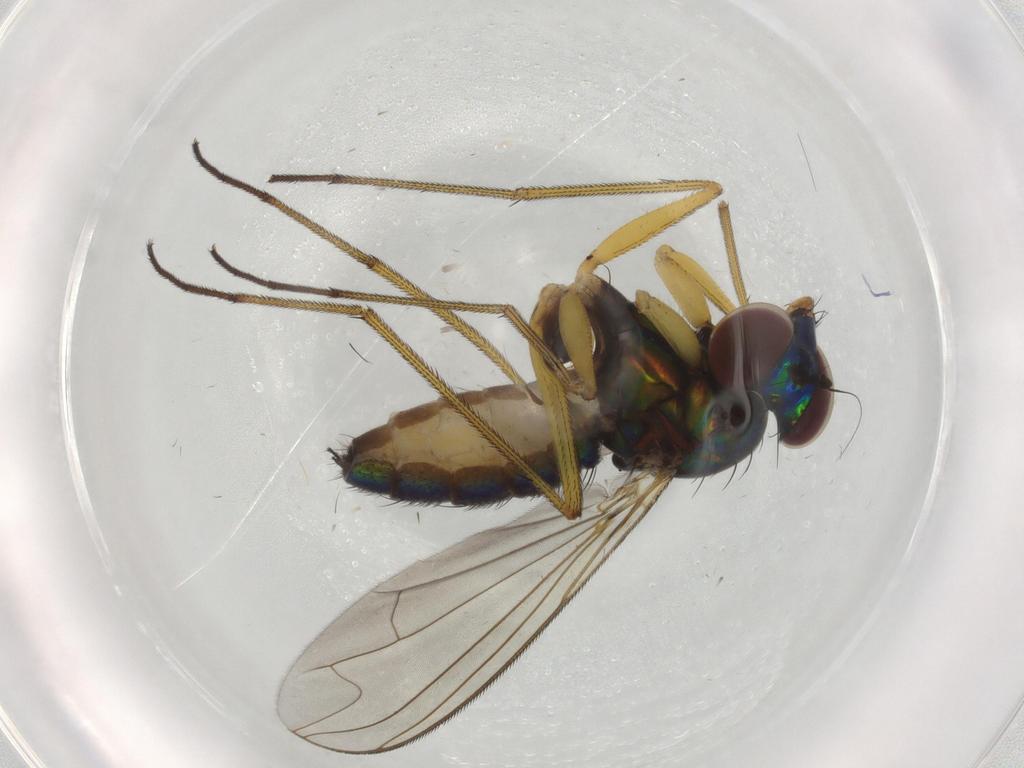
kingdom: Animalia
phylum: Arthropoda
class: Insecta
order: Diptera
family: Dolichopodidae
